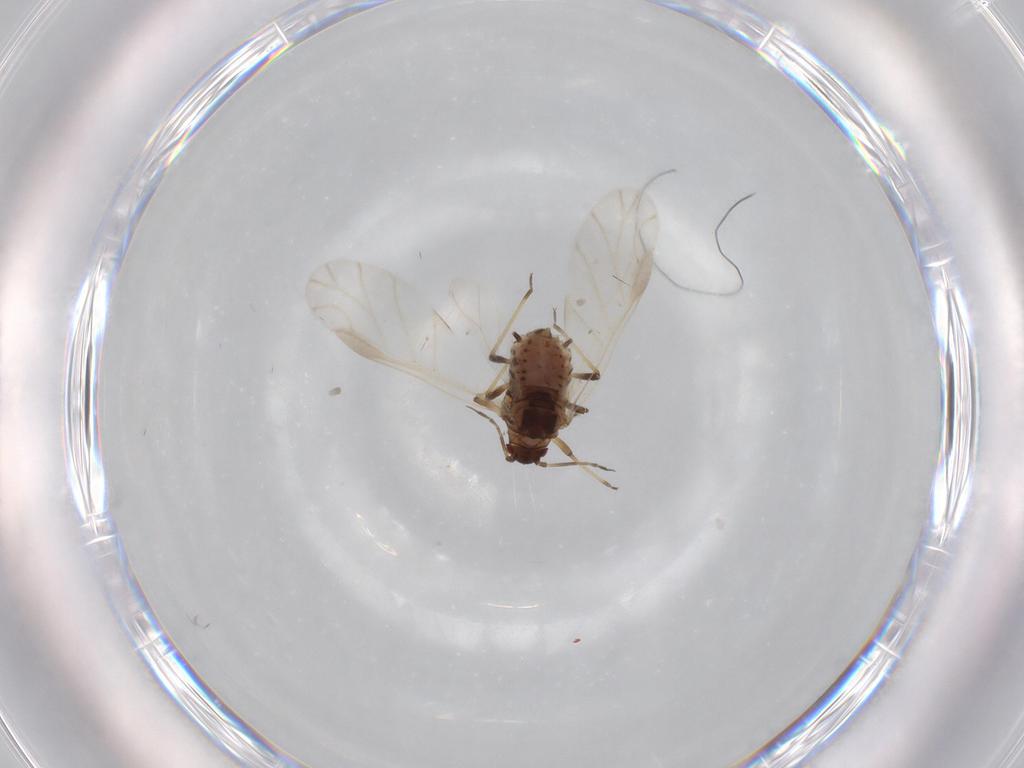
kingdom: Animalia
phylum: Arthropoda
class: Insecta
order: Hemiptera
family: Aphididae
